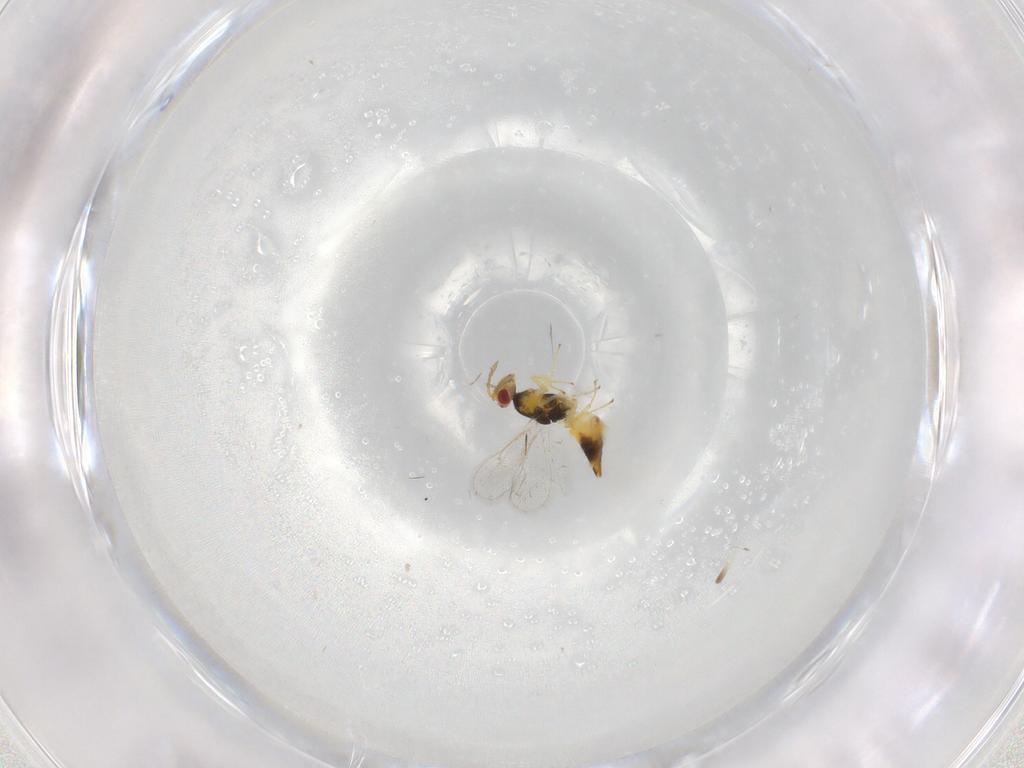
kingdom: Animalia
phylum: Arthropoda
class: Insecta
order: Hymenoptera
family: Eulophidae
